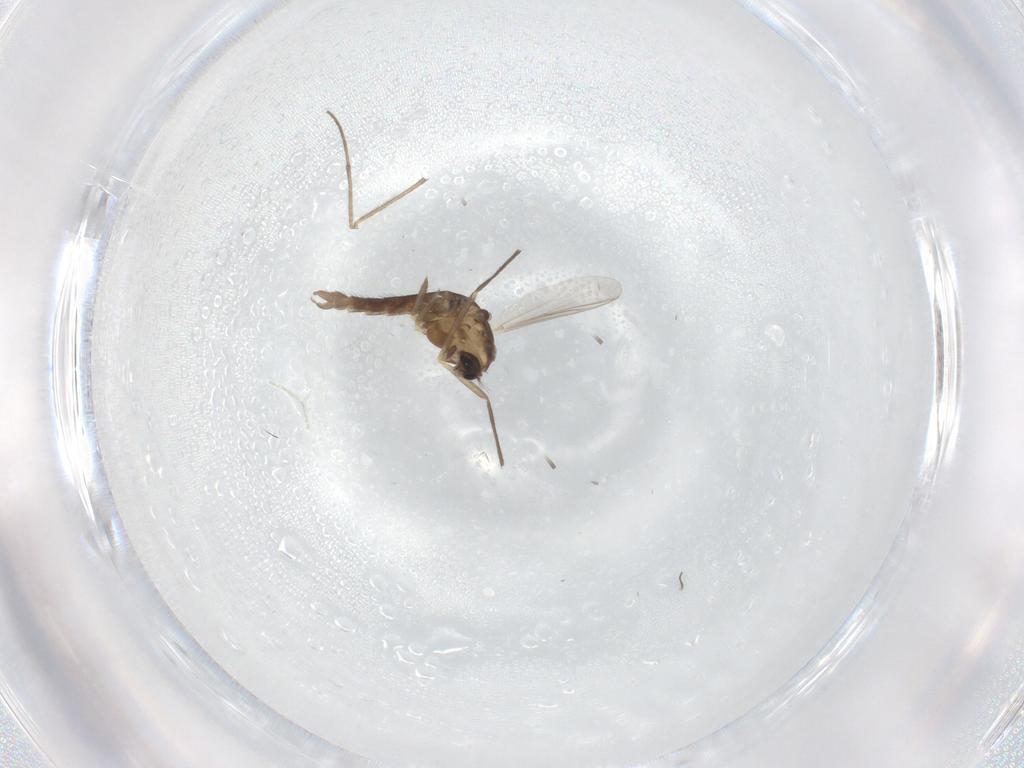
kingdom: Animalia
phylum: Arthropoda
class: Insecta
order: Diptera
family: Chironomidae
